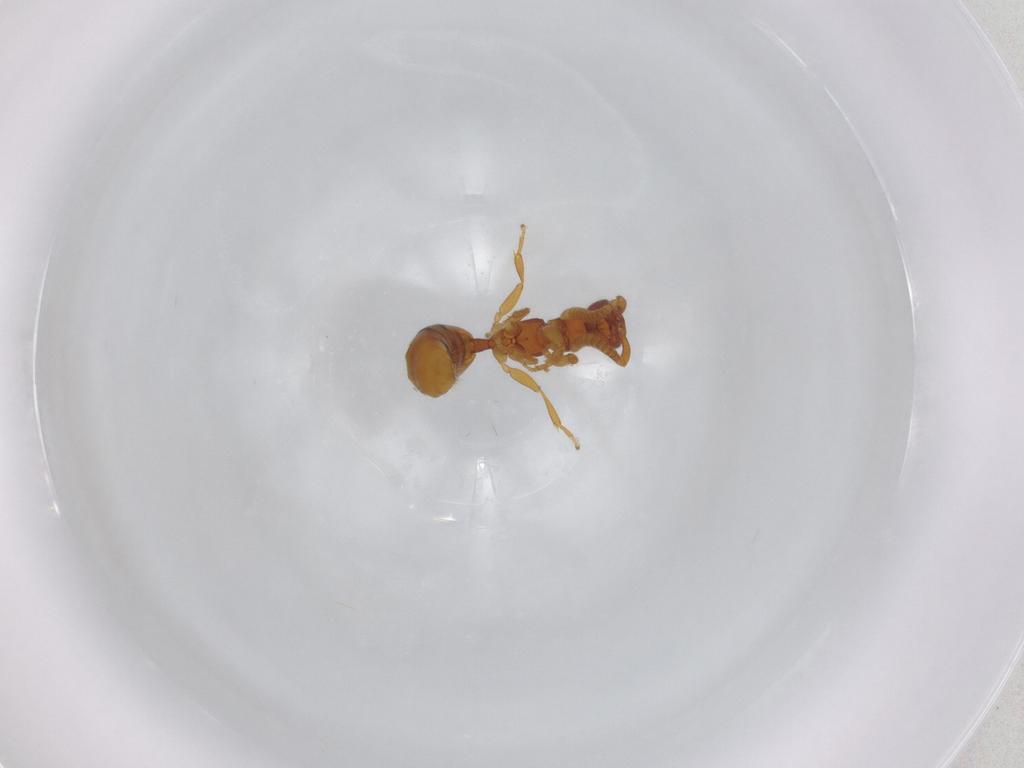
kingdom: Animalia
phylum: Arthropoda
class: Insecta
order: Hymenoptera
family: Bethylidae
